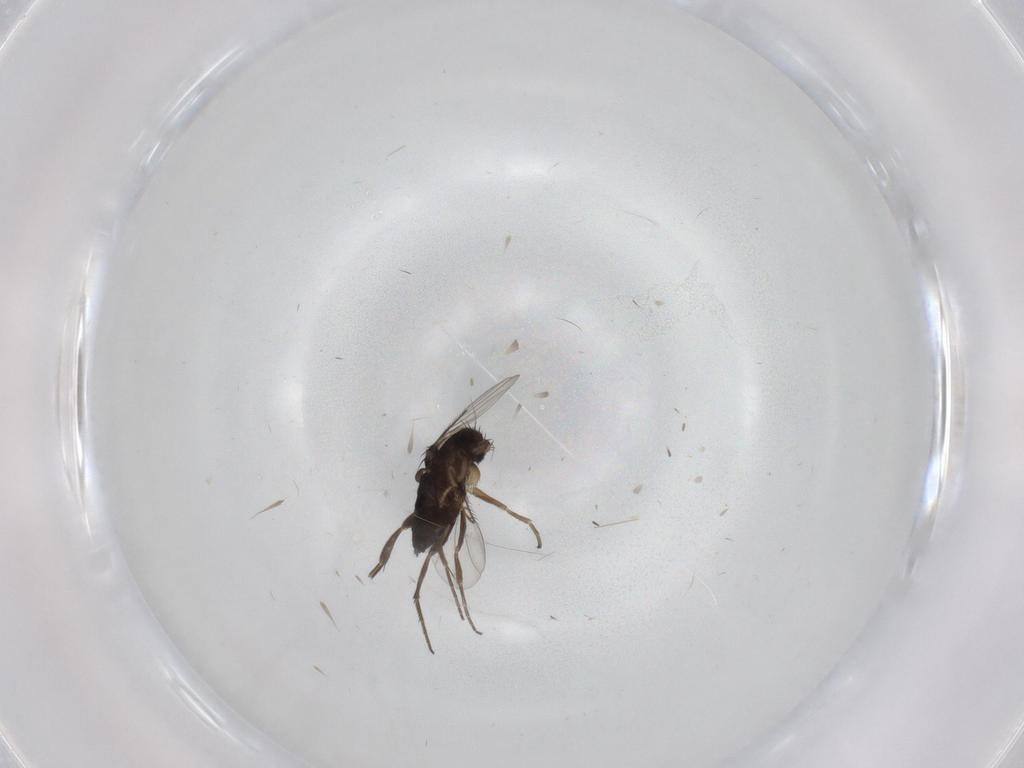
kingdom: Animalia
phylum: Arthropoda
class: Insecta
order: Diptera
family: Phoridae
